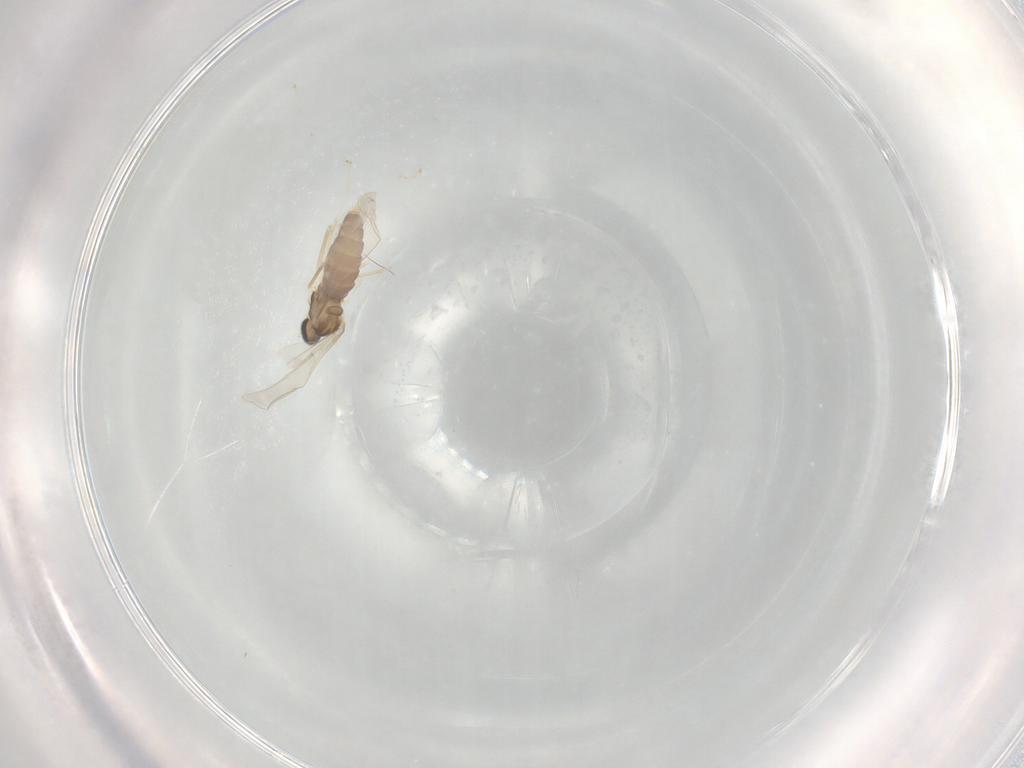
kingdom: Animalia
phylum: Arthropoda
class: Insecta
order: Diptera
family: Cecidomyiidae
